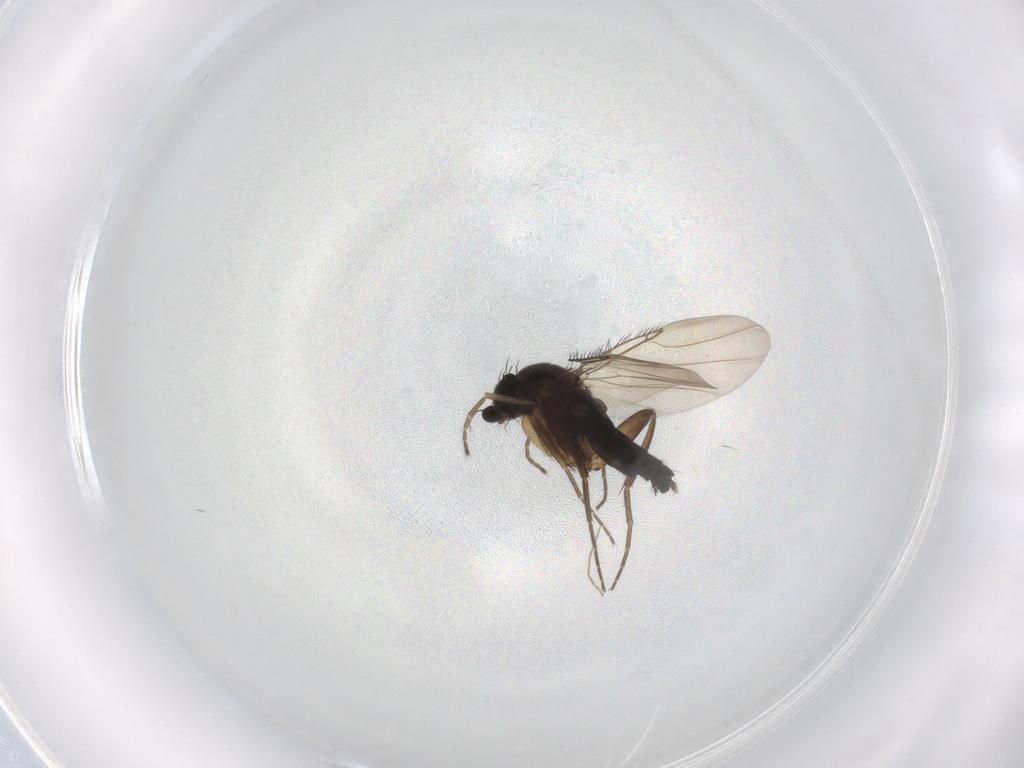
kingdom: Animalia
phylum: Arthropoda
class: Insecta
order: Diptera
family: Phoridae
